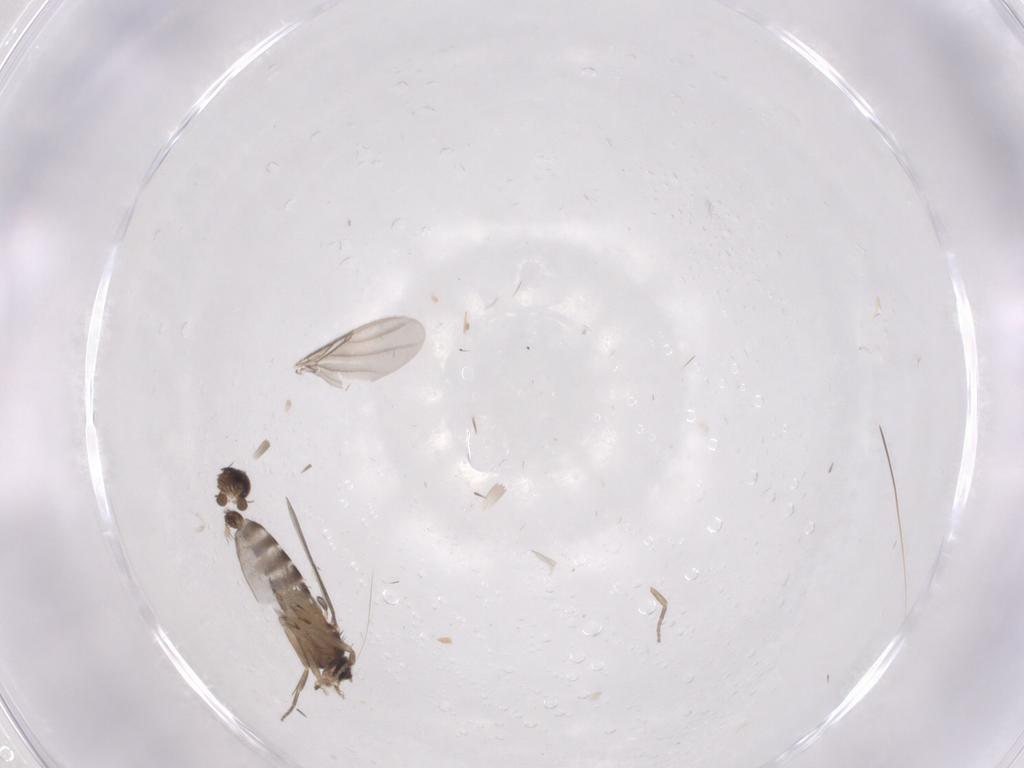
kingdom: Animalia
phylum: Arthropoda
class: Insecta
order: Diptera
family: Phoridae
